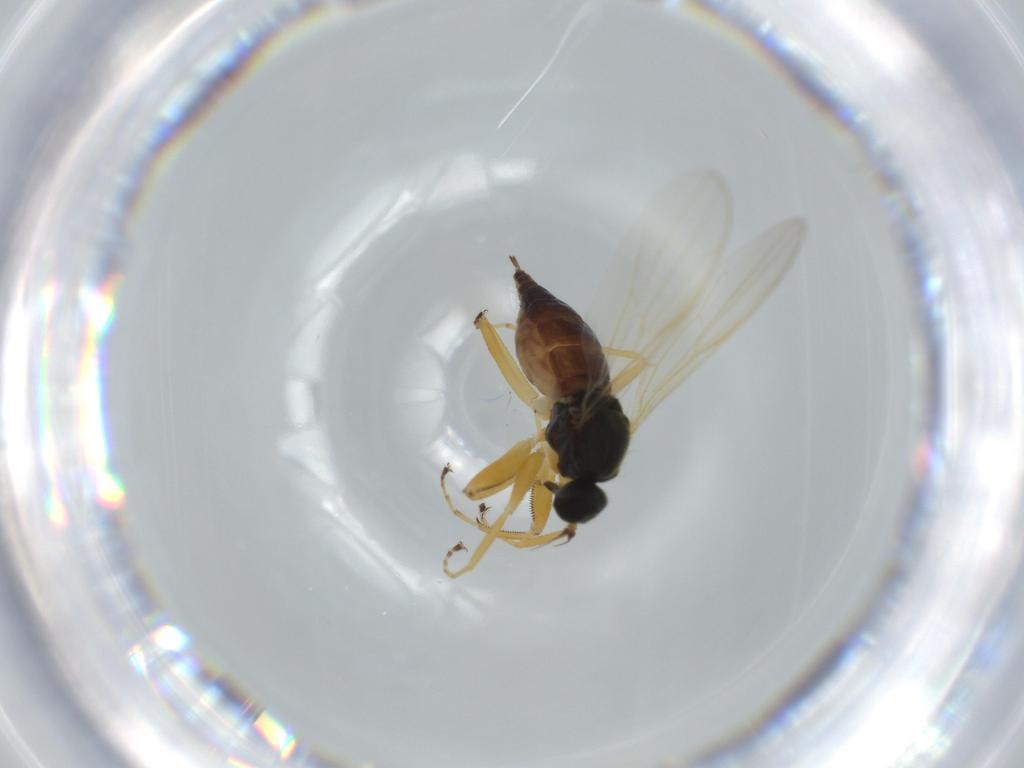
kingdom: Animalia
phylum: Arthropoda
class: Insecta
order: Diptera
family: Hybotidae
